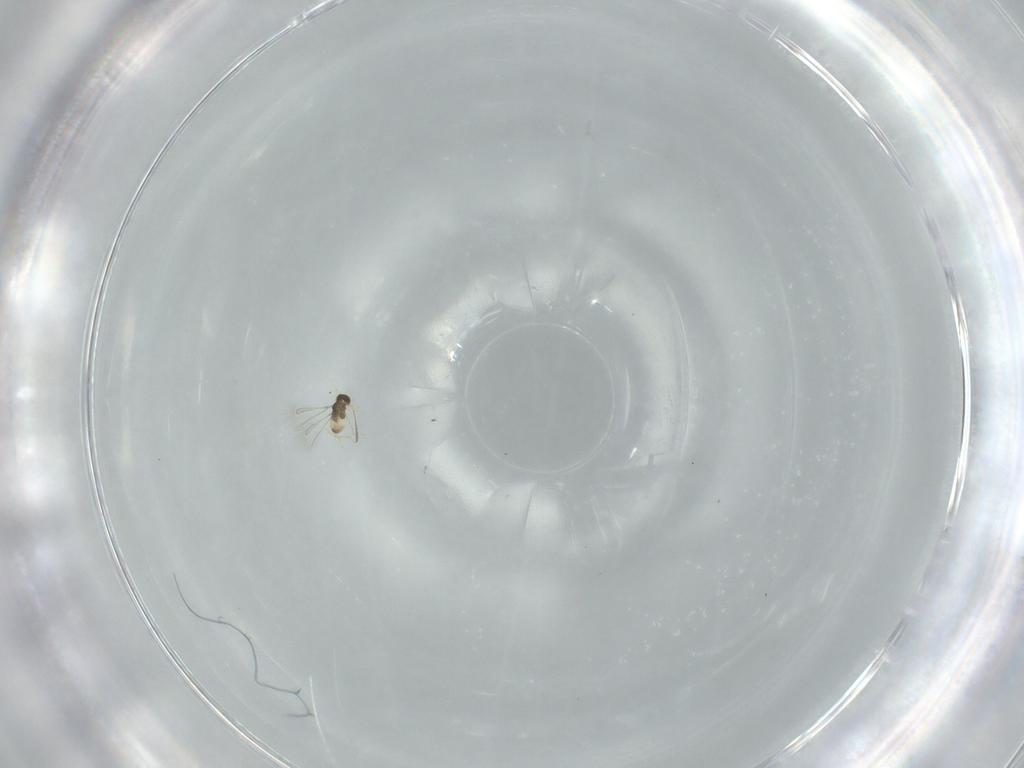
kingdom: Animalia
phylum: Arthropoda
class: Insecta
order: Hymenoptera
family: Mymaridae
